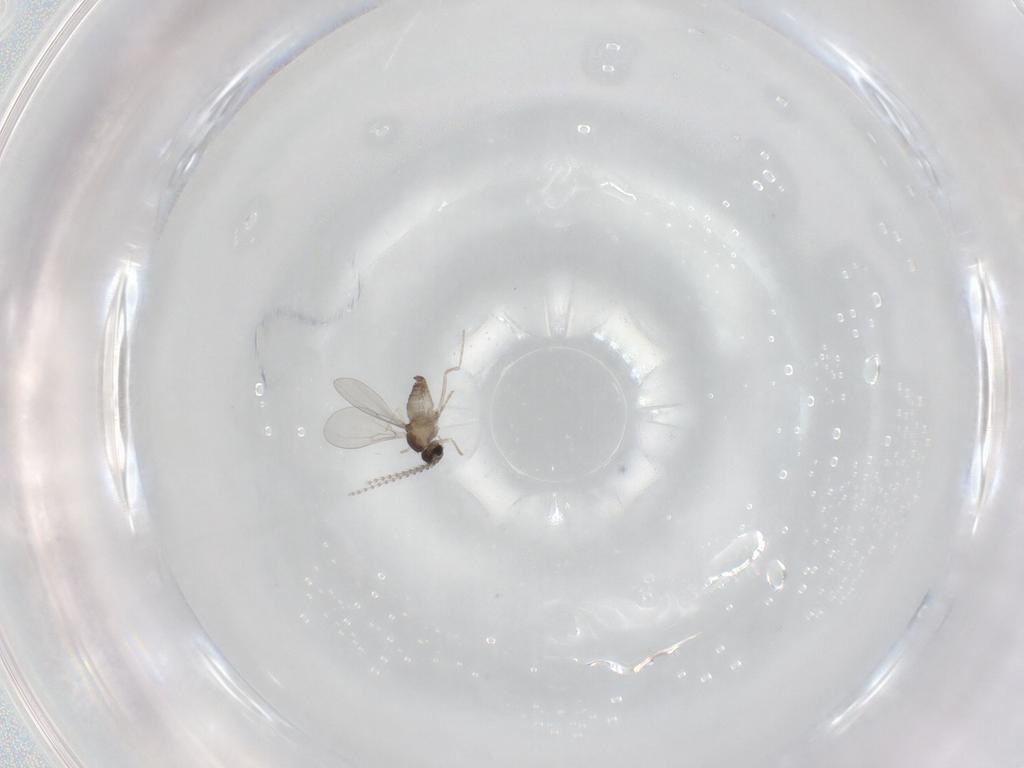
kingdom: Animalia
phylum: Arthropoda
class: Insecta
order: Diptera
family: Cecidomyiidae
